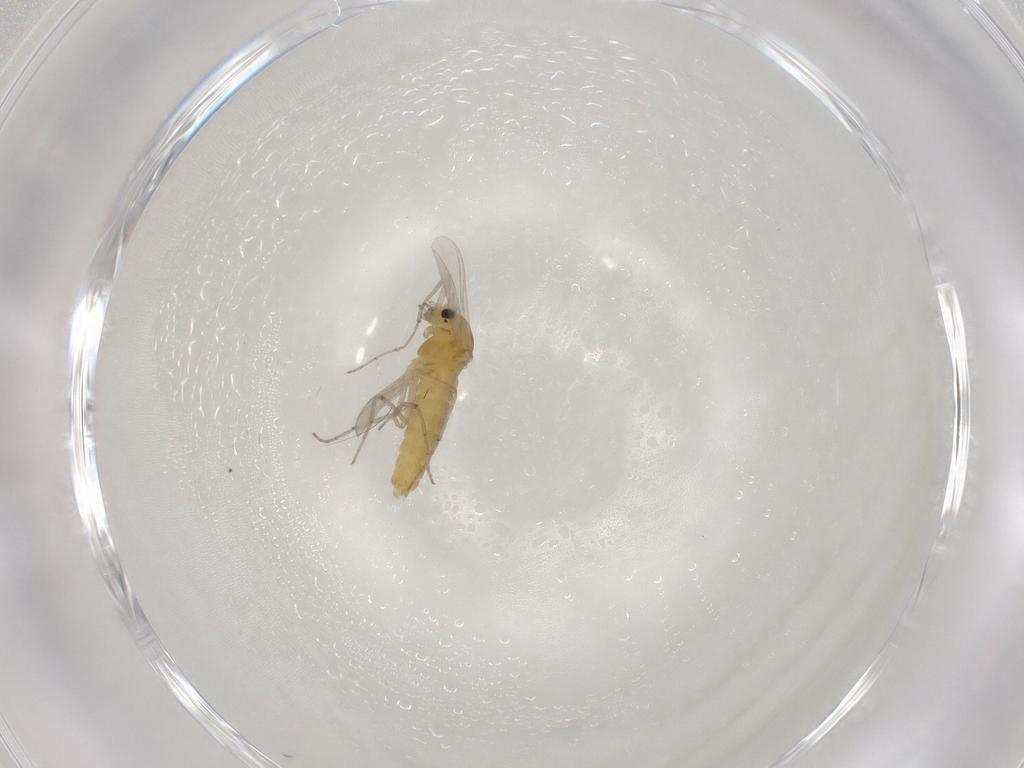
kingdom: Animalia
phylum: Arthropoda
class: Insecta
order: Diptera
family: Chironomidae
